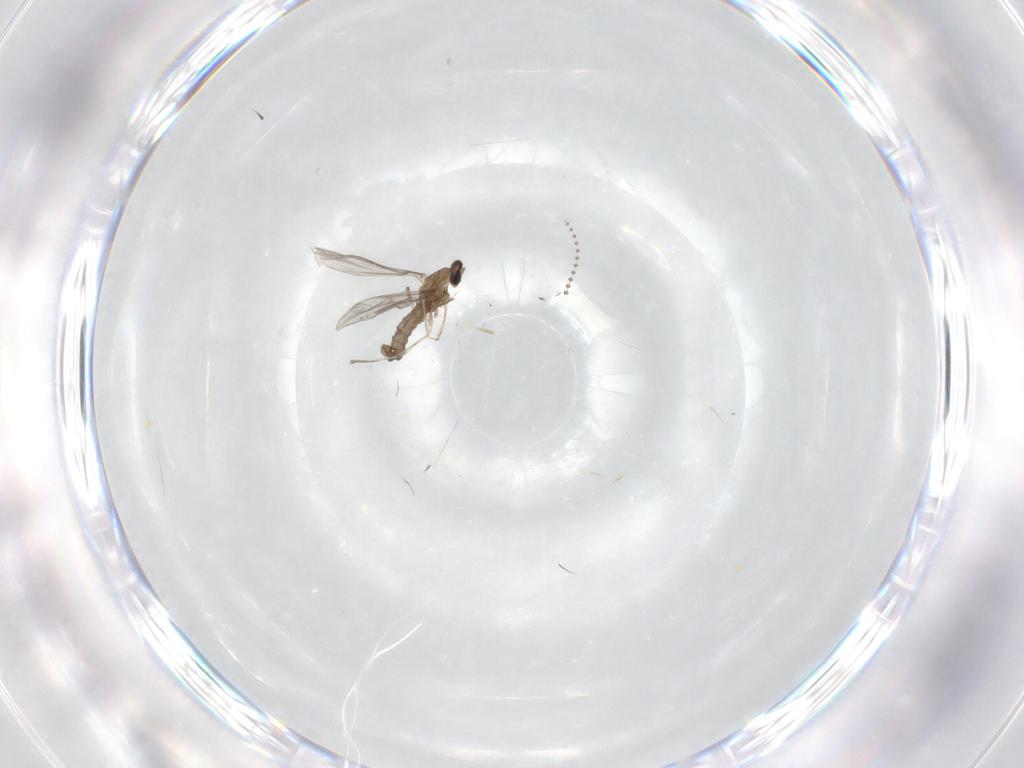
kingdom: Animalia
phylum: Arthropoda
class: Insecta
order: Diptera
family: Cecidomyiidae
